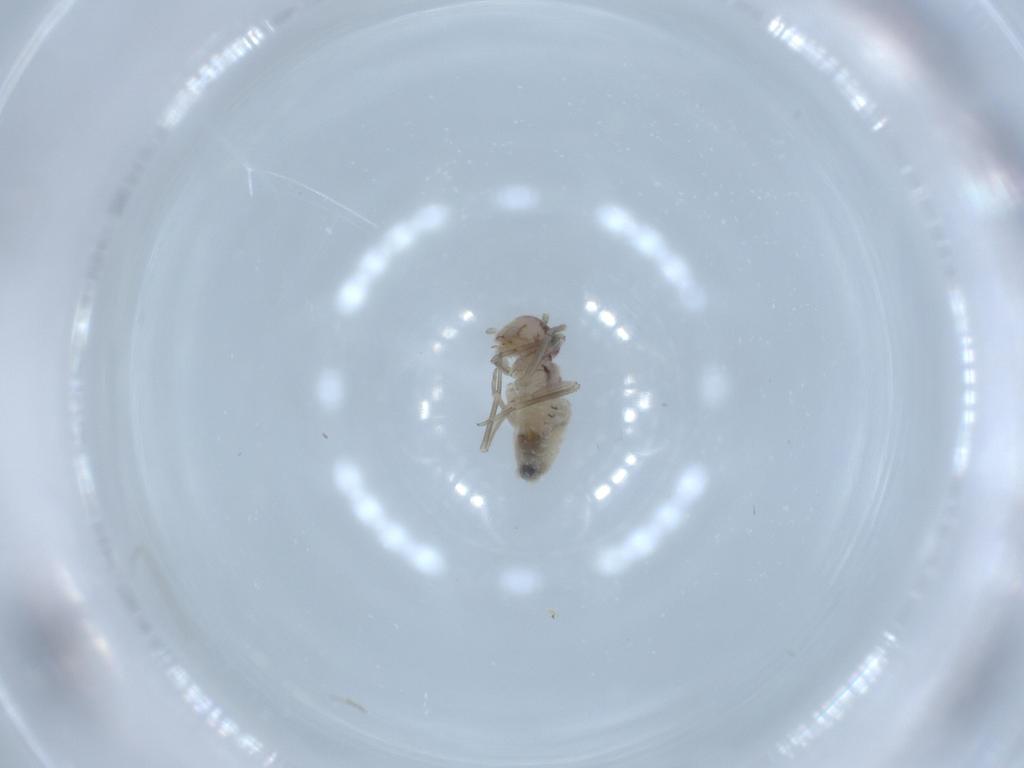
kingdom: Animalia
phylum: Arthropoda
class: Insecta
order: Psocodea
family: Epipsocidae
